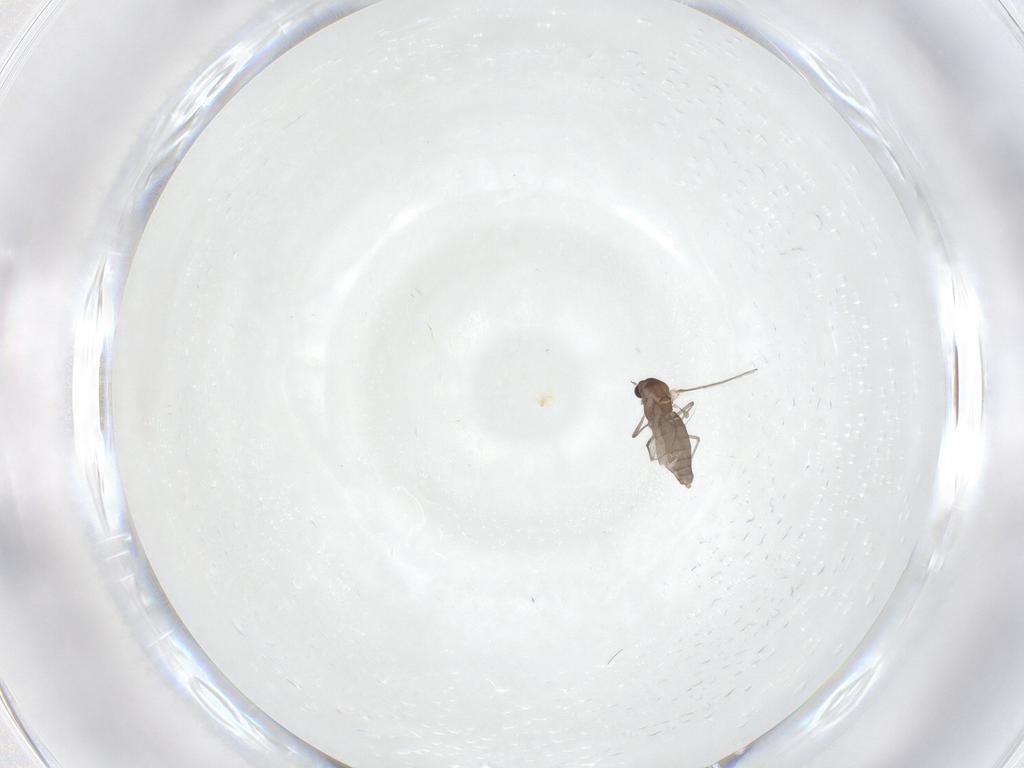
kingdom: Animalia
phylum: Arthropoda
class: Insecta
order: Diptera
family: Chironomidae
